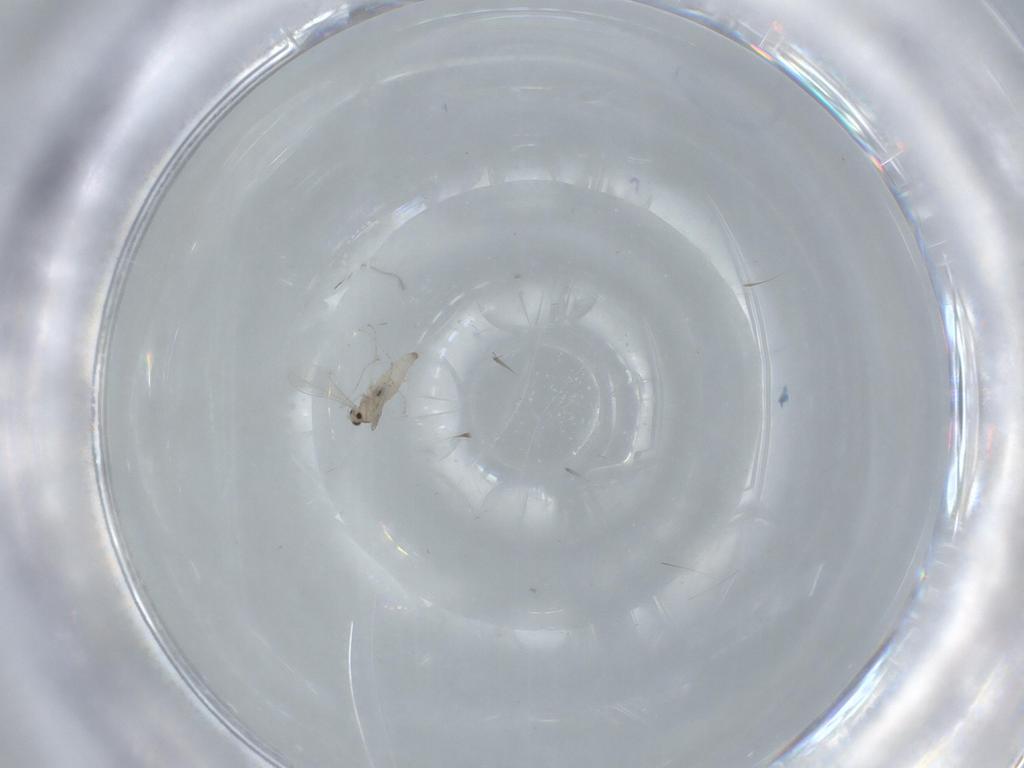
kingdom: Animalia
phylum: Arthropoda
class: Insecta
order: Diptera
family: Cecidomyiidae
